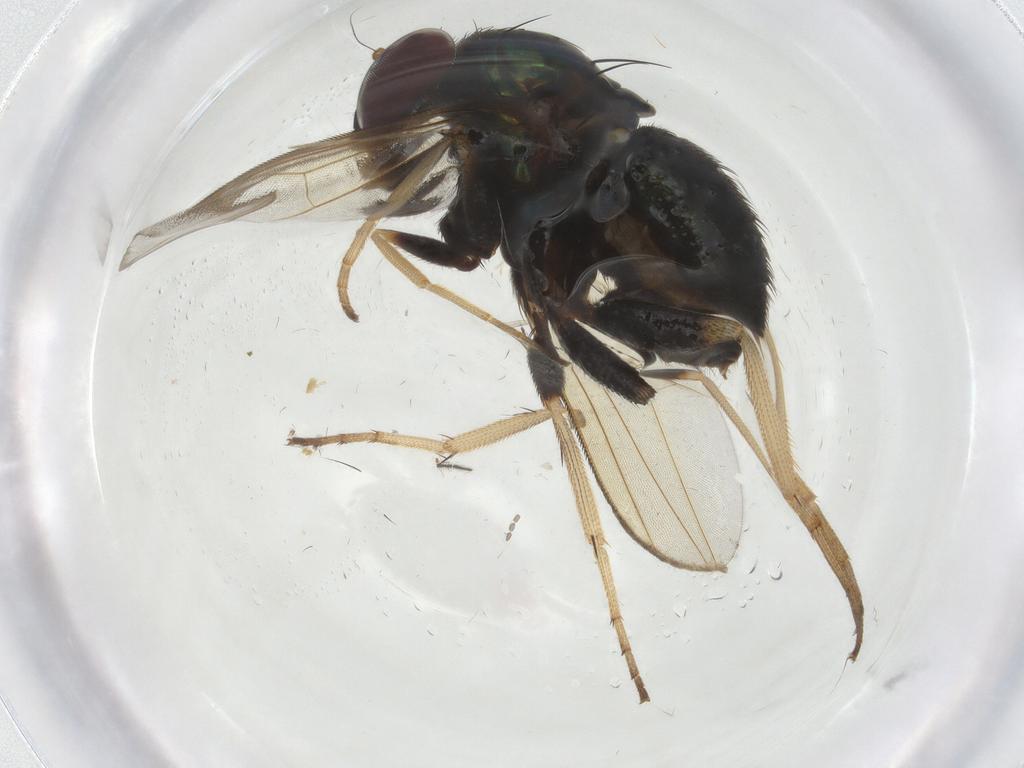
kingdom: Animalia
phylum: Arthropoda
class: Insecta
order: Diptera
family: Dolichopodidae
